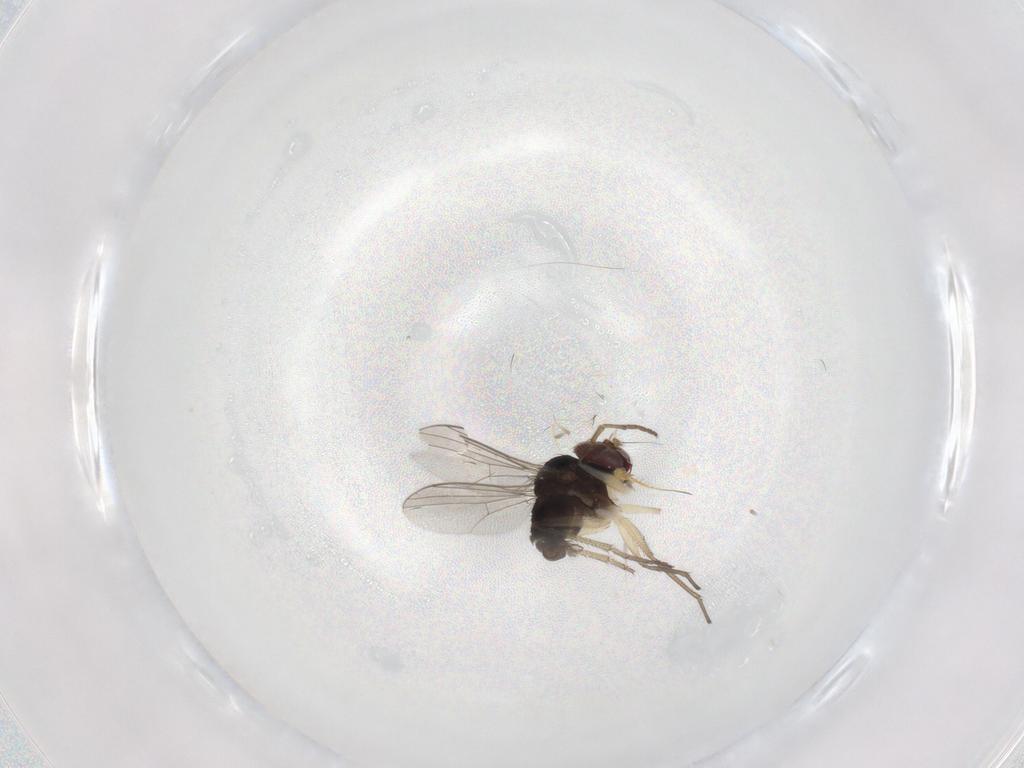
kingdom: Animalia
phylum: Arthropoda
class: Insecta
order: Diptera
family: Dolichopodidae
